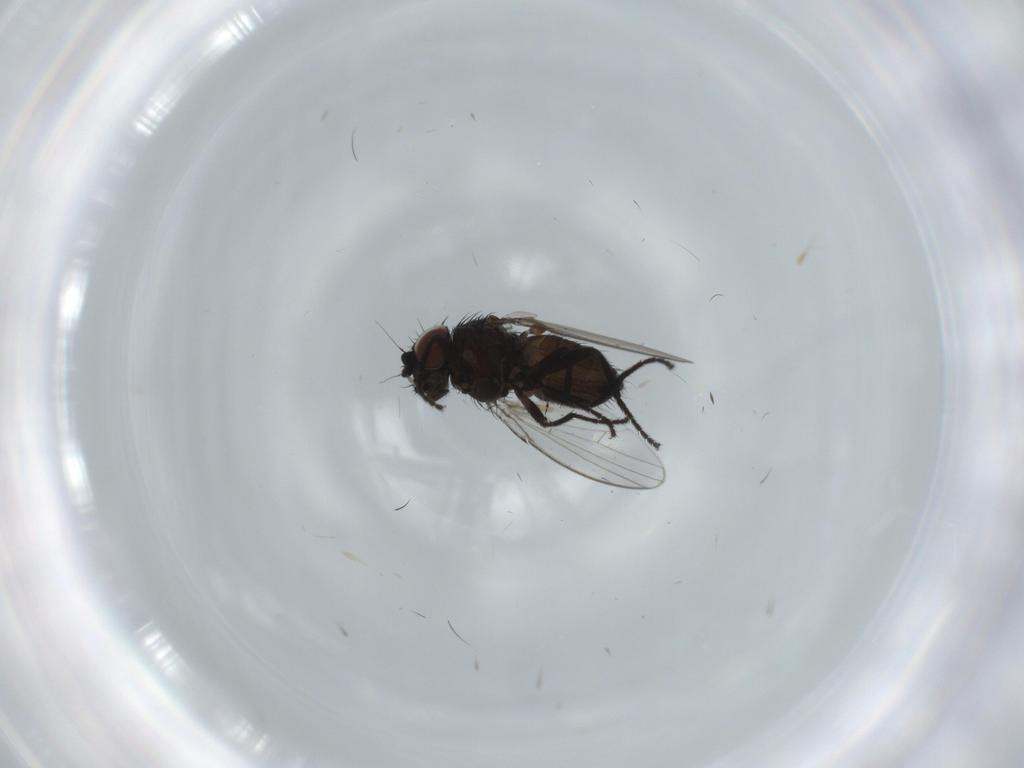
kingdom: Animalia
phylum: Arthropoda
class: Insecta
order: Diptera
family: Milichiidae
